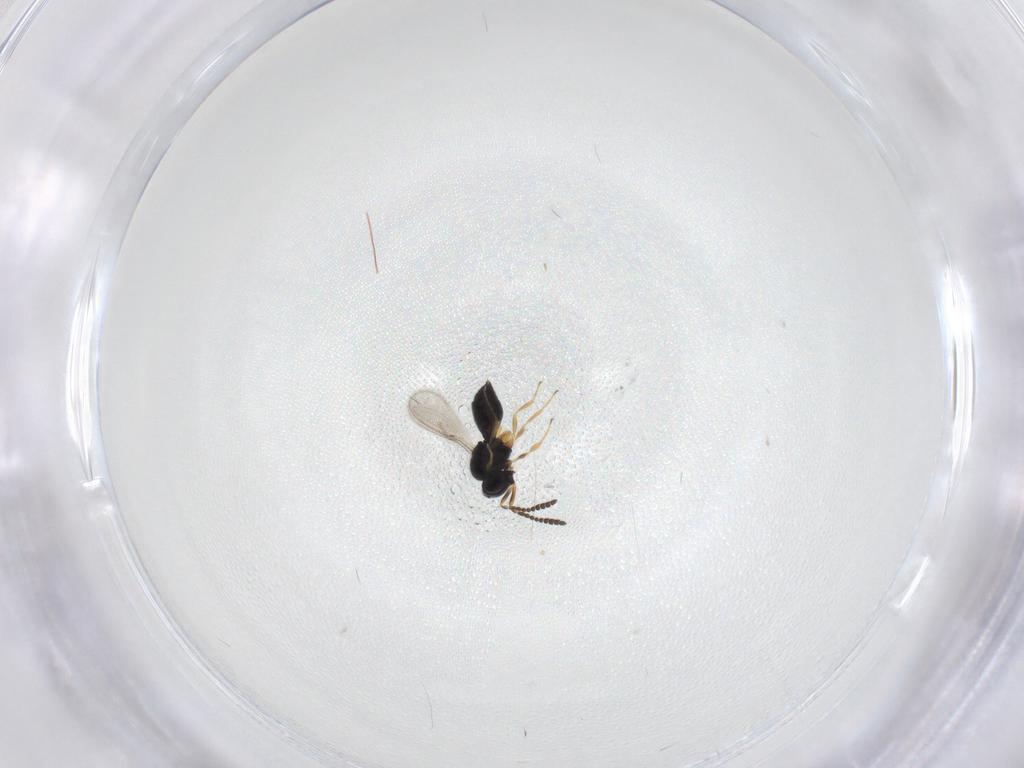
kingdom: Animalia
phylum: Arthropoda
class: Insecta
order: Hymenoptera
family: Scelionidae
